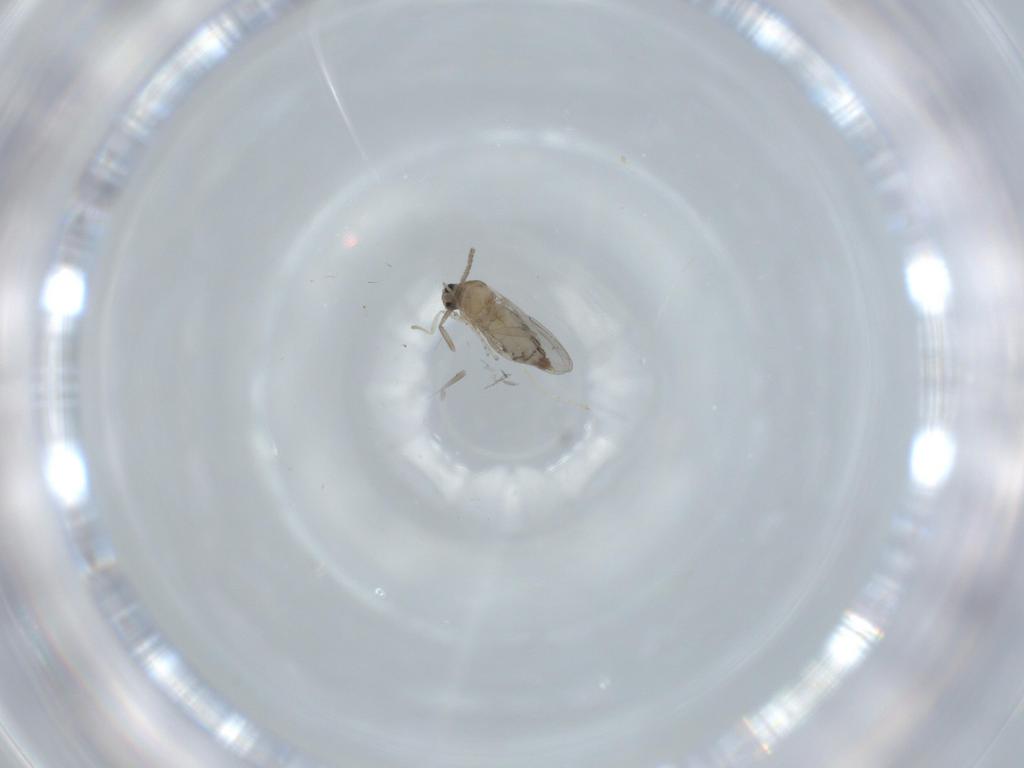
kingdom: Animalia
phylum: Arthropoda
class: Insecta
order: Diptera
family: Cecidomyiidae
